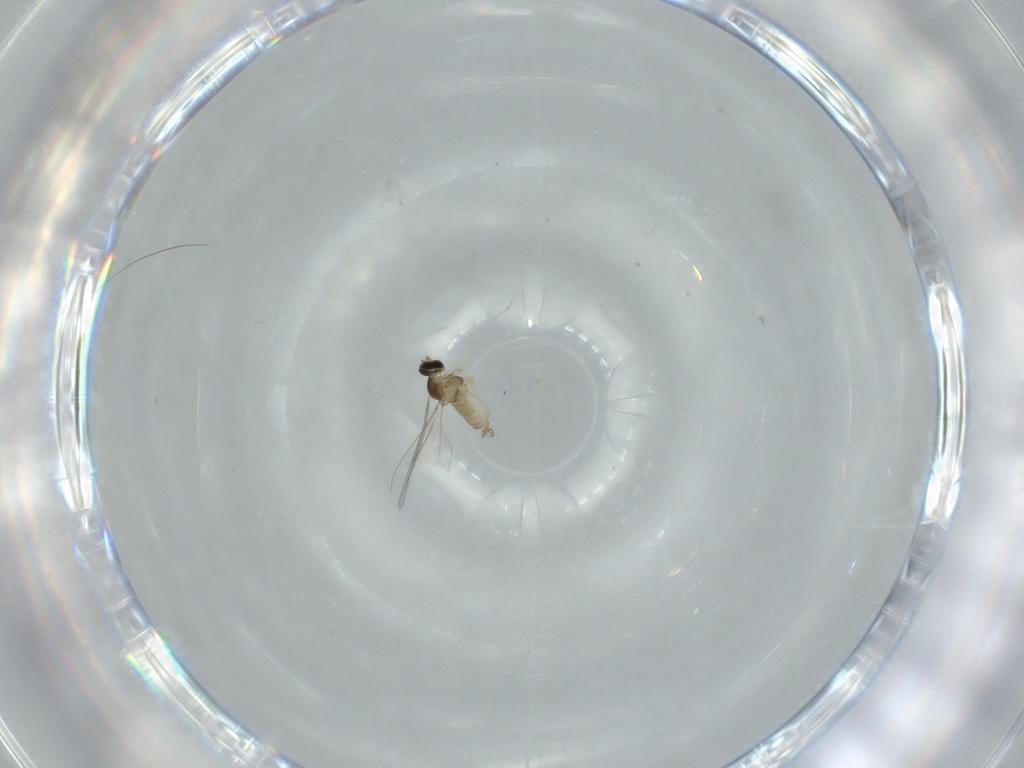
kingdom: Animalia
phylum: Arthropoda
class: Insecta
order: Diptera
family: Cecidomyiidae
